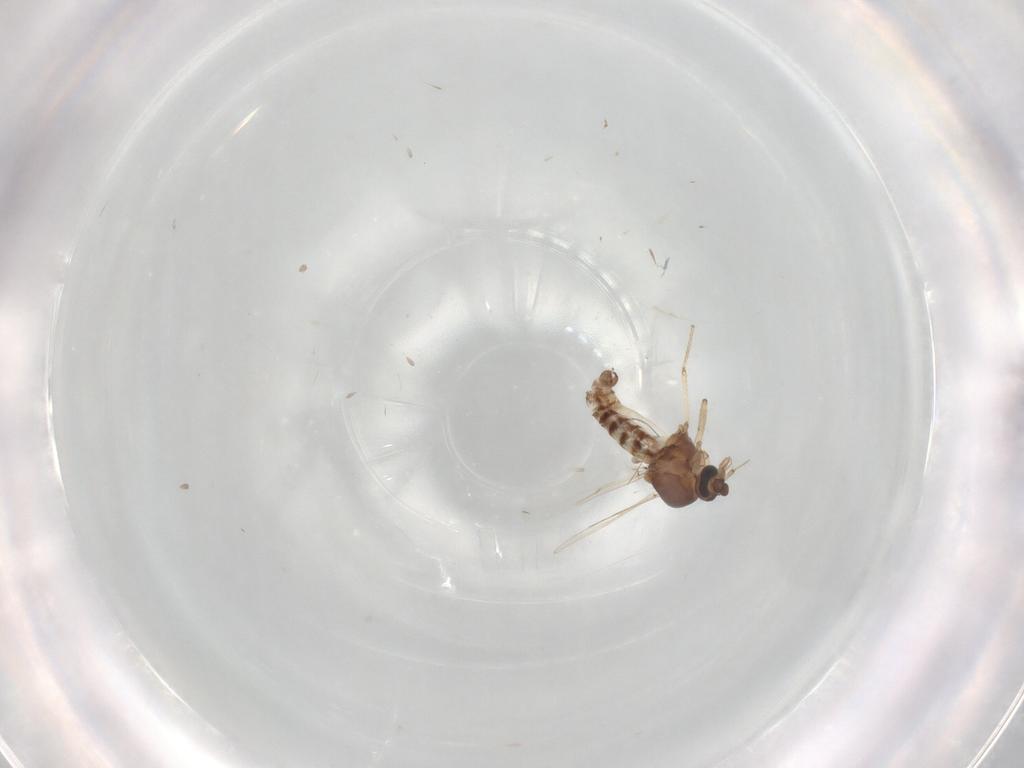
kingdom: Animalia
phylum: Arthropoda
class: Insecta
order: Diptera
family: Ceratopogonidae
